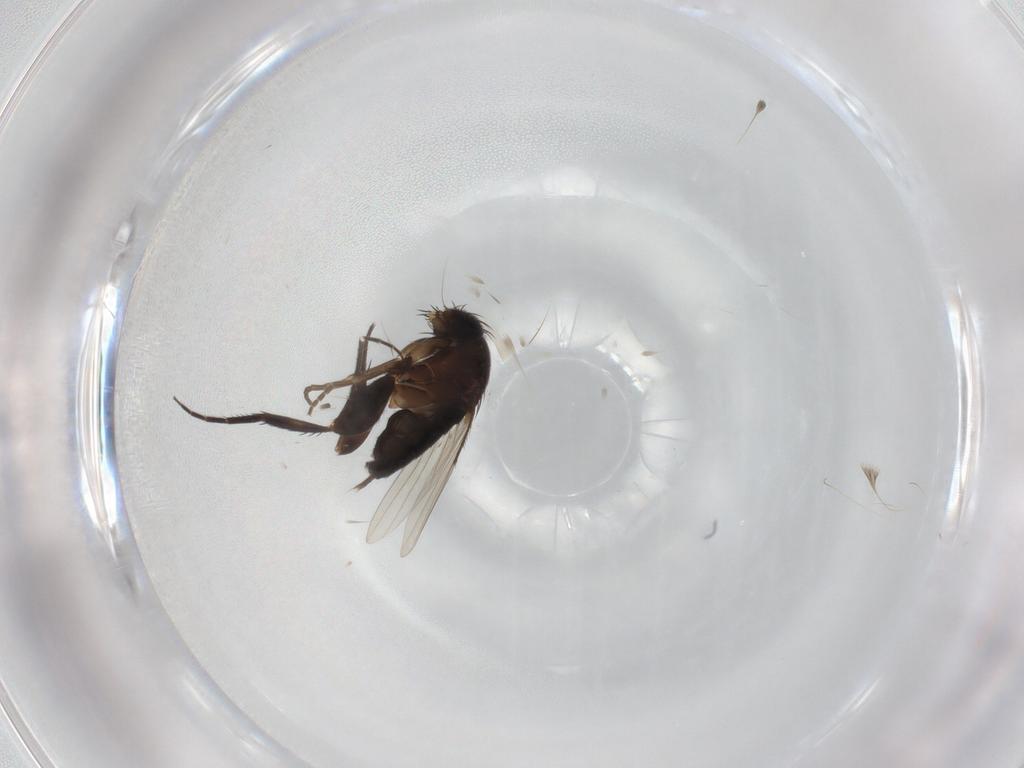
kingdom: Animalia
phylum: Arthropoda
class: Insecta
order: Diptera
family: Phoridae
